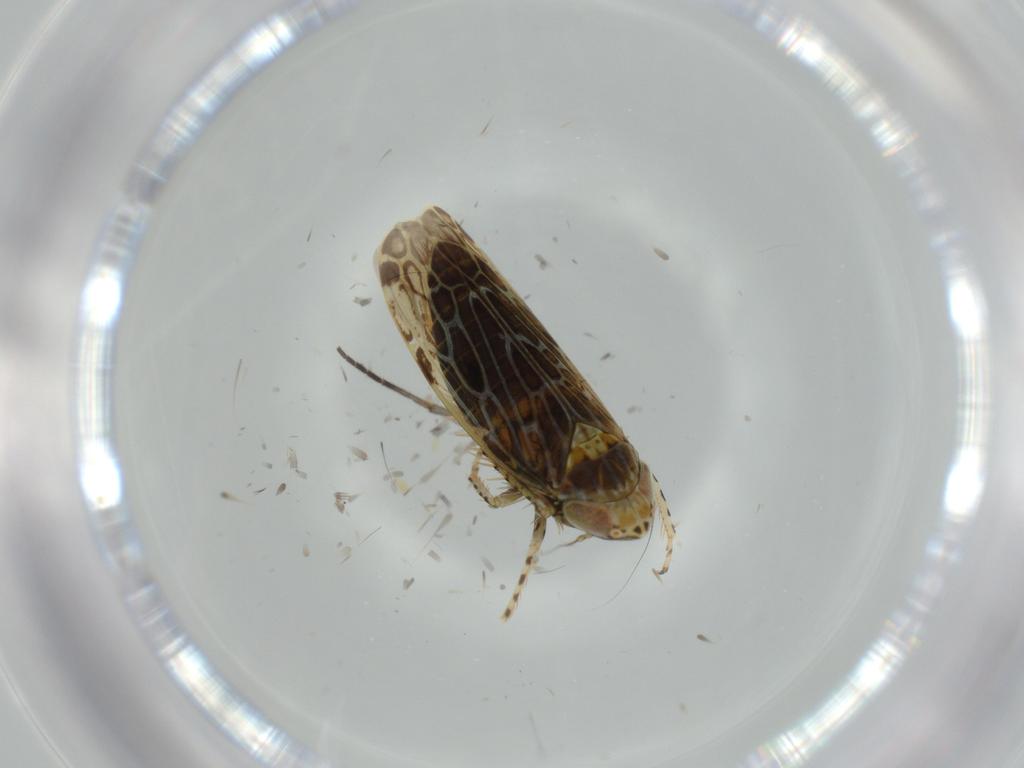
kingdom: Animalia
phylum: Arthropoda
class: Insecta
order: Hemiptera
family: Cicadellidae
